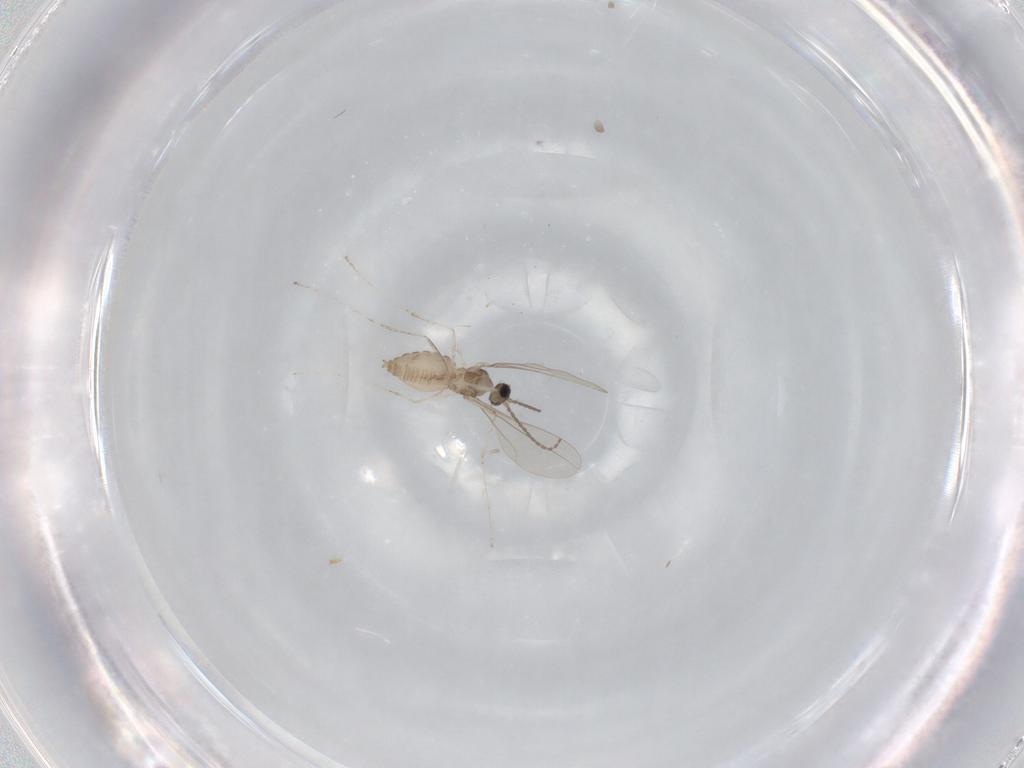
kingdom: Animalia
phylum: Arthropoda
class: Insecta
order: Diptera
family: Cecidomyiidae
